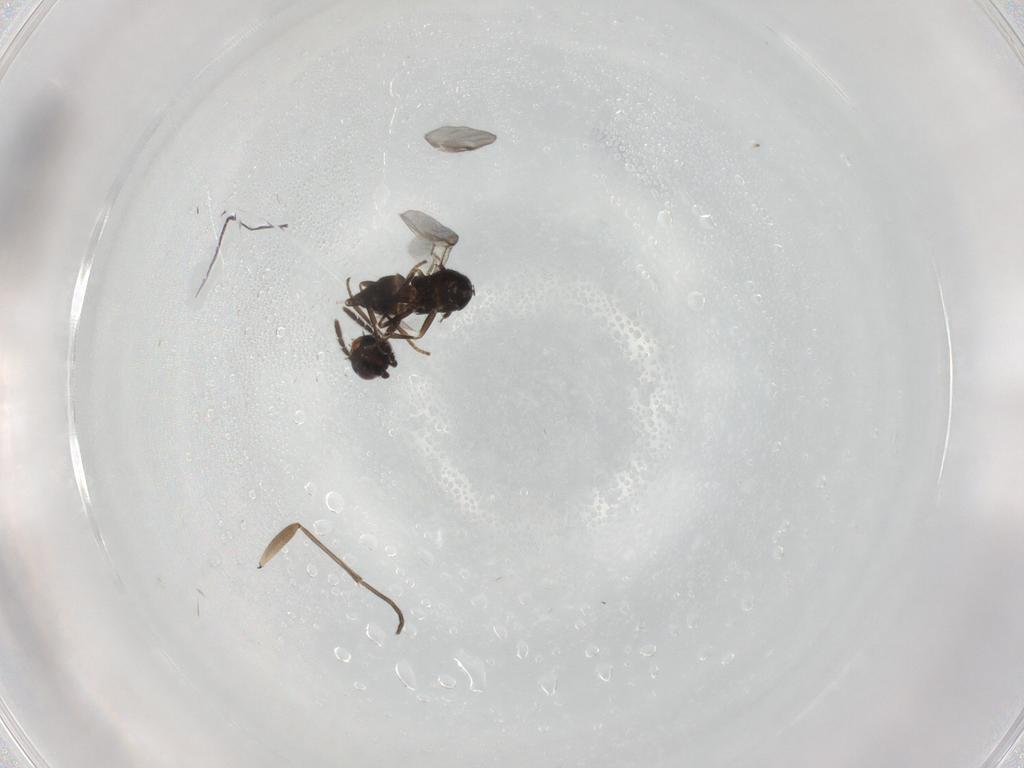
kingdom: Animalia
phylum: Arthropoda
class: Insecta
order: Hymenoptera
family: Encyrtidae
